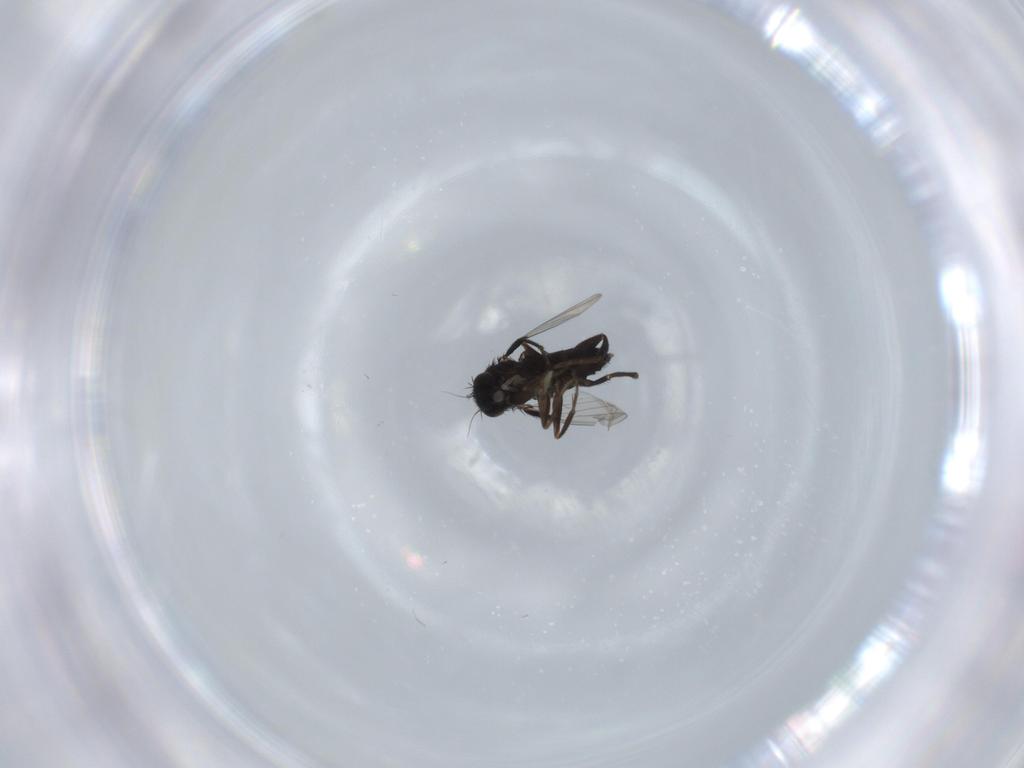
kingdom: Animalia
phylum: Arthropoda
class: Insecta
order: Diptera
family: Phoridae
